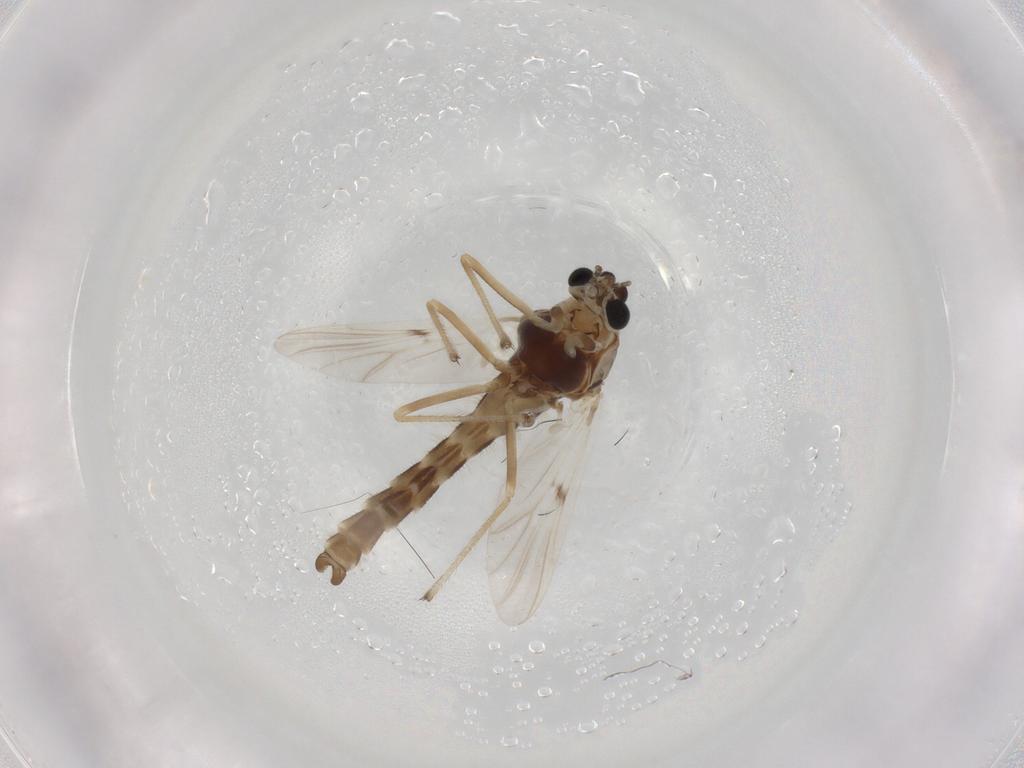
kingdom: Animalia
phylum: Arthropoda
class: Insecta
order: Diptera
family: Chironomidae
